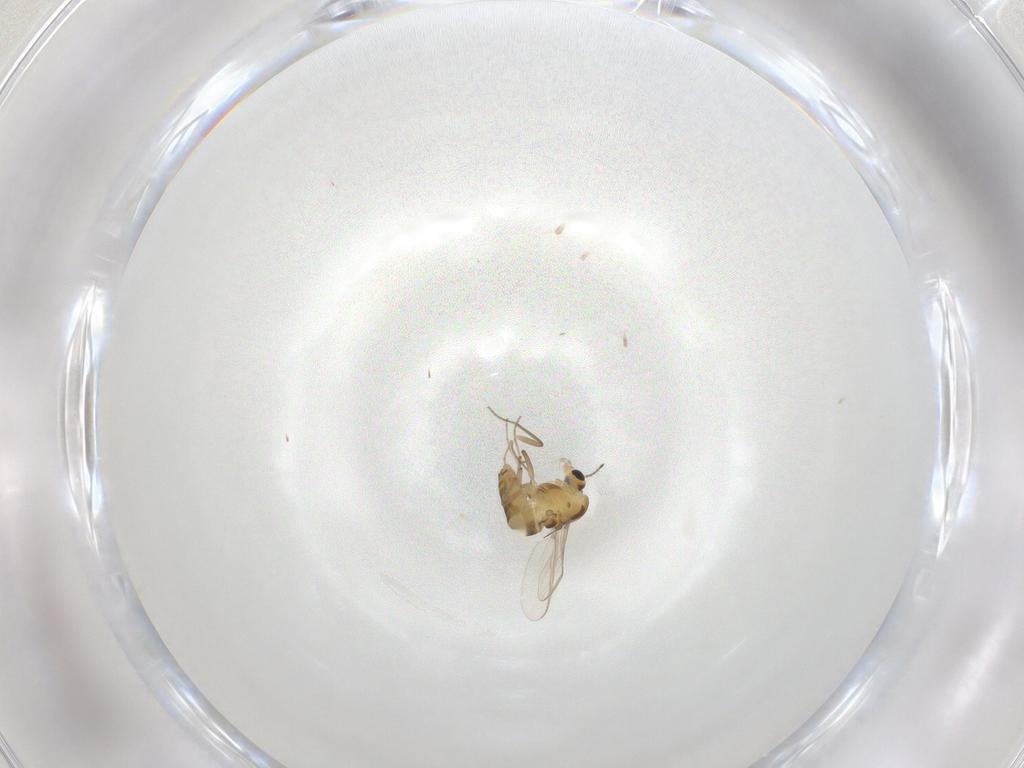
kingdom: Animalia
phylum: Arthropoda
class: Insecta
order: Diptera
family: Chironomidae
